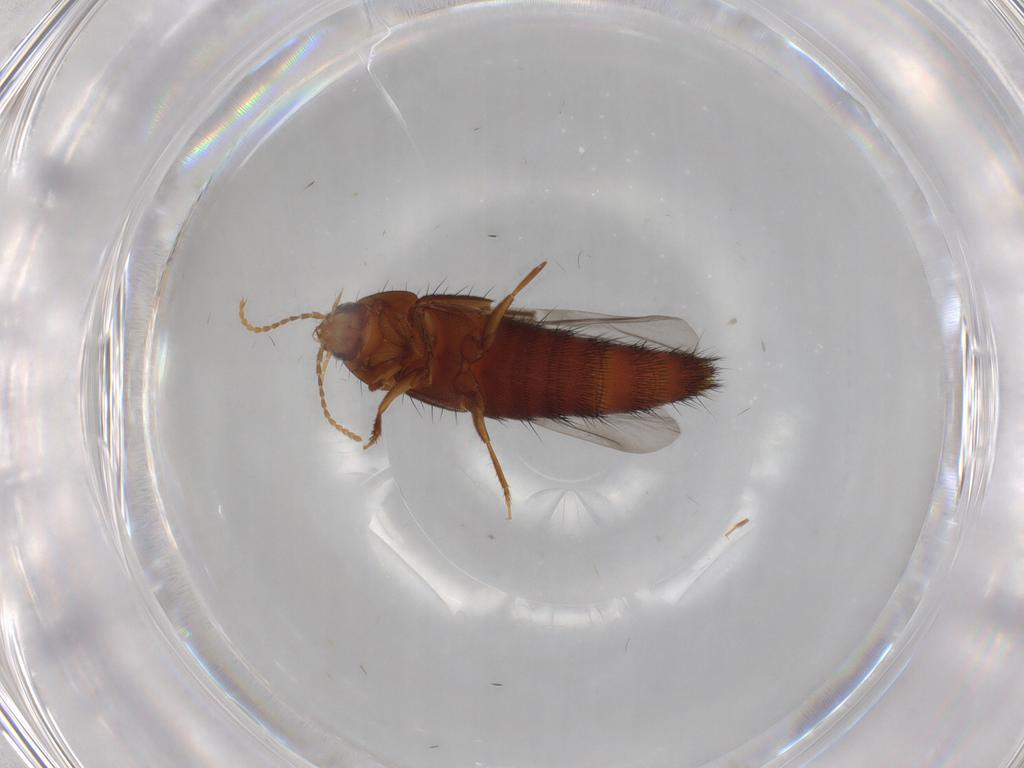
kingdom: Animalia
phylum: Arthropoda
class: Insecta
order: Coleoptera
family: Staphylinidae
